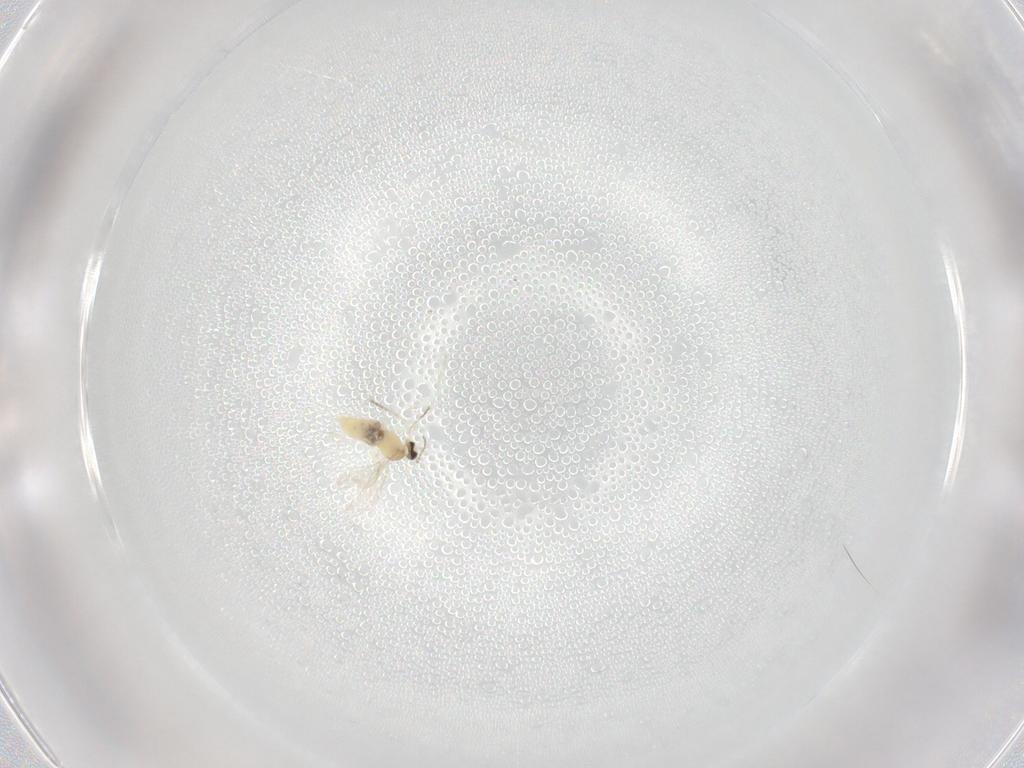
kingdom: Animalia
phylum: Arthropoda
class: Insecta
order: Diptera
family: Cecidomyiidae
